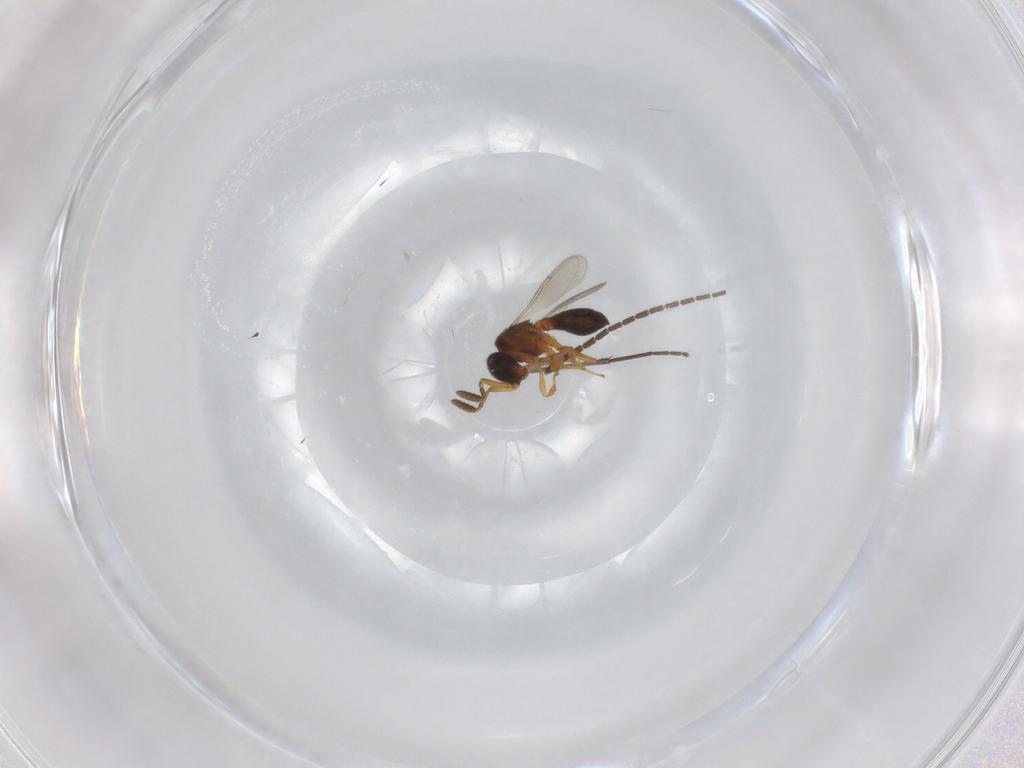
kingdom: Animalia
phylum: Arthropoda
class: Insecta
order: Hymenoptera
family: Scelionidae
